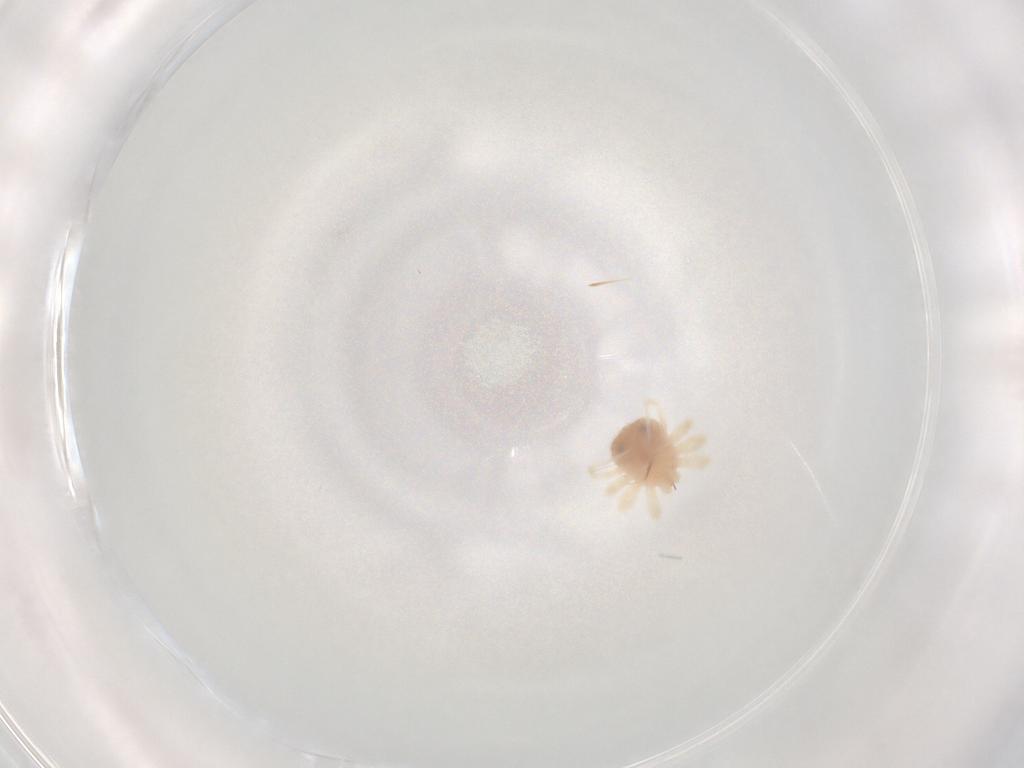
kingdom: Animalia
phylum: Arthropoda
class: Arachnida
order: Trombidiformes
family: Anystidae
